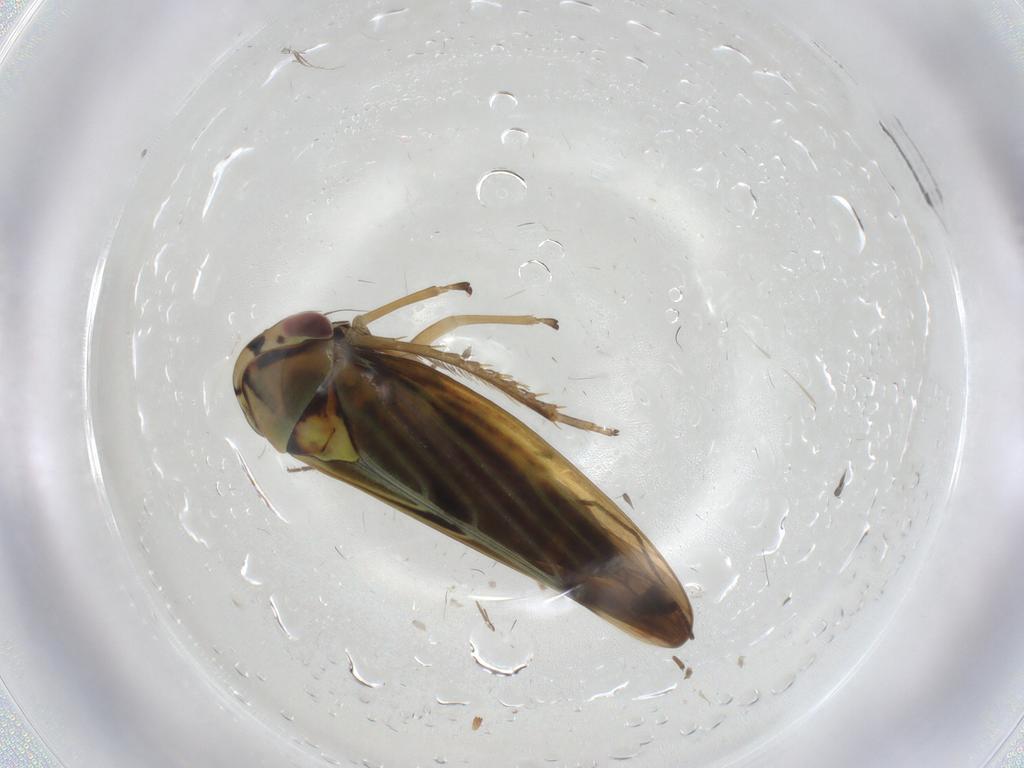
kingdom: Animalia
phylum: Arthropoda
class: Insecta
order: Hemiptera
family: Cicadellidae
